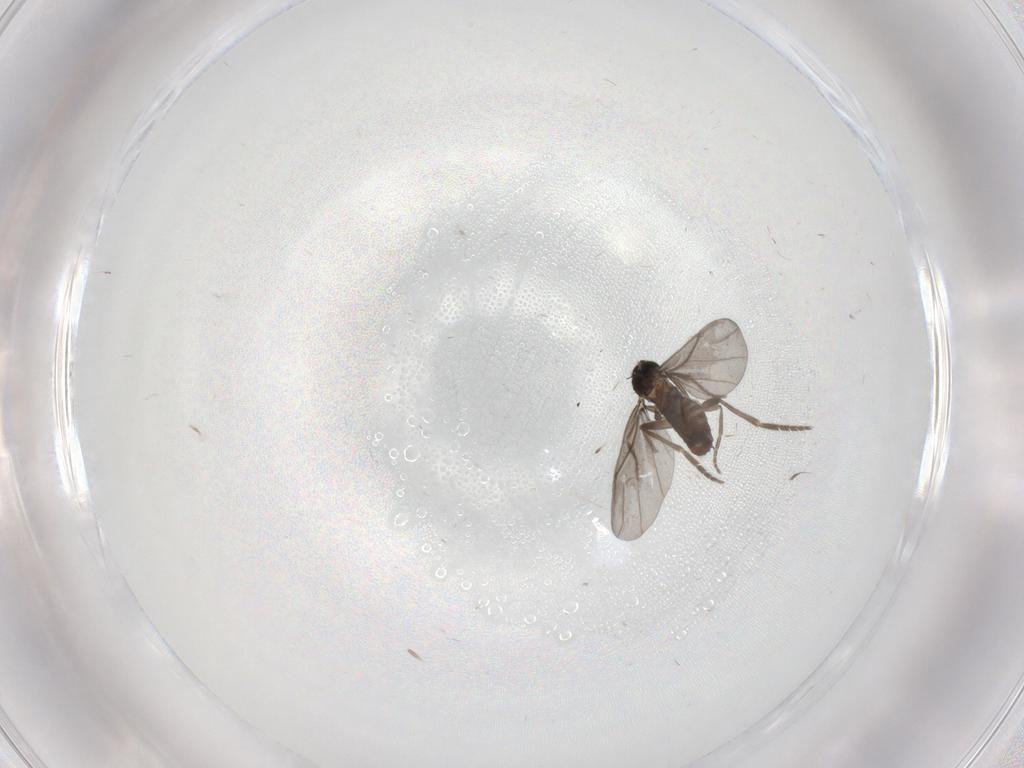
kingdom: Animalia
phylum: Arthropoda
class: Insecta
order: Diptera
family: Phoridae
